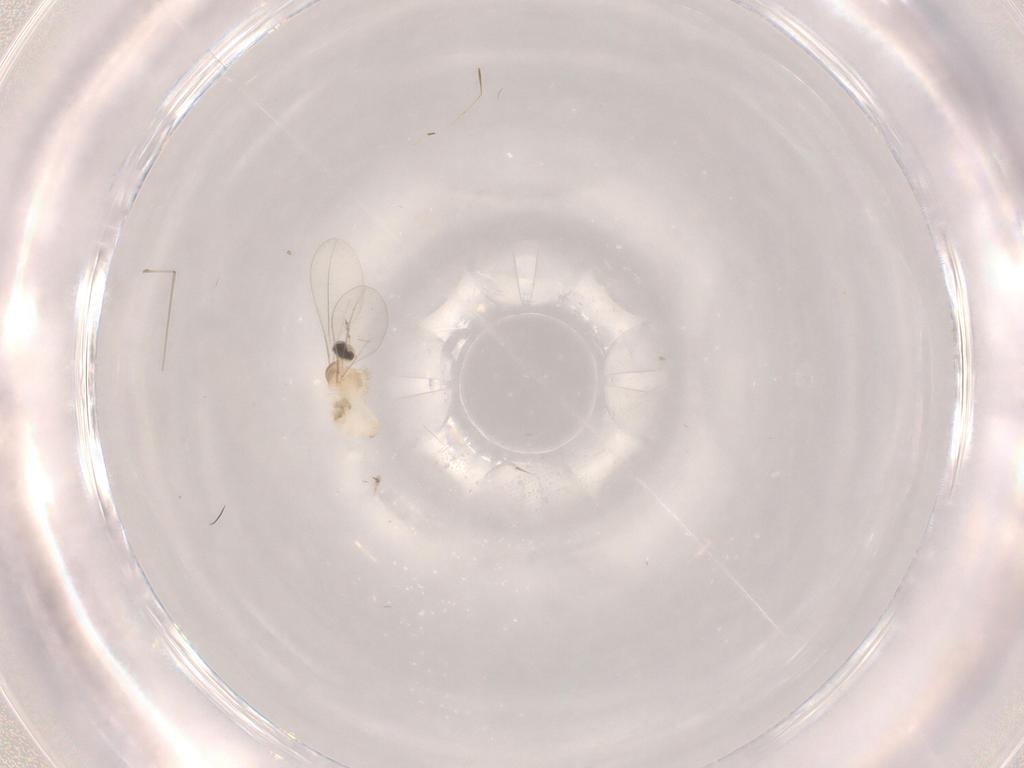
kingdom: Animalia
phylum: Arthropoda
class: Insecta
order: Diptera
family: Cecidomyiidae
